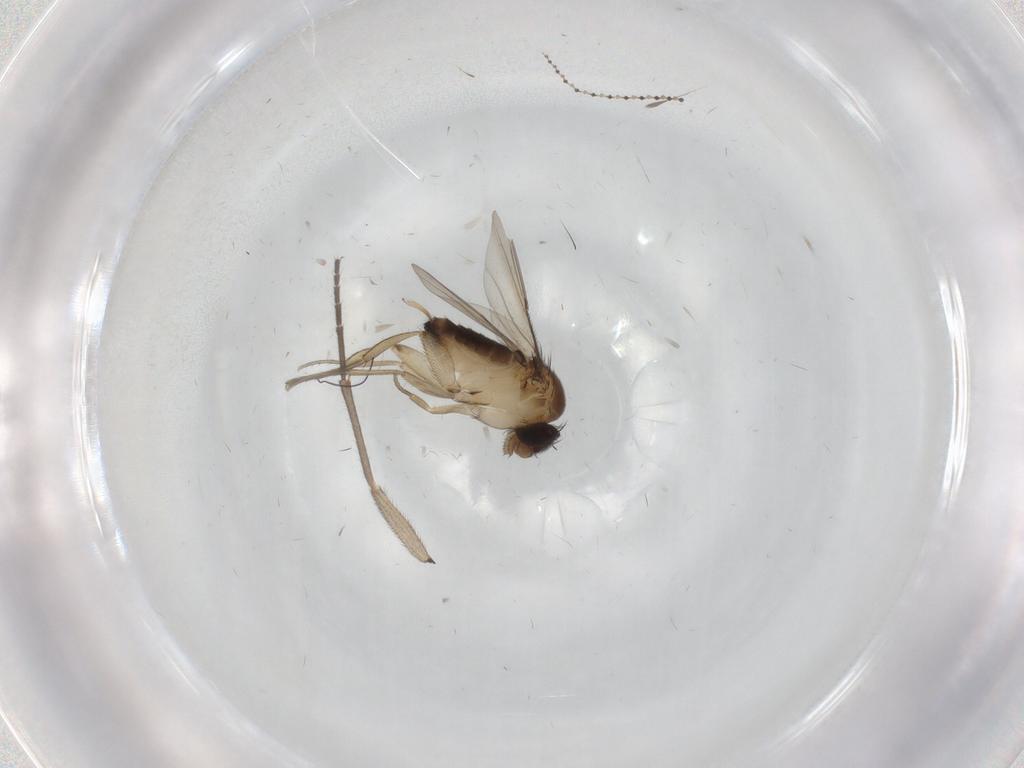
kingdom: Animalia
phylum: Arthropoda
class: Insecta
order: Diptera
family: Cecidomyiidae
